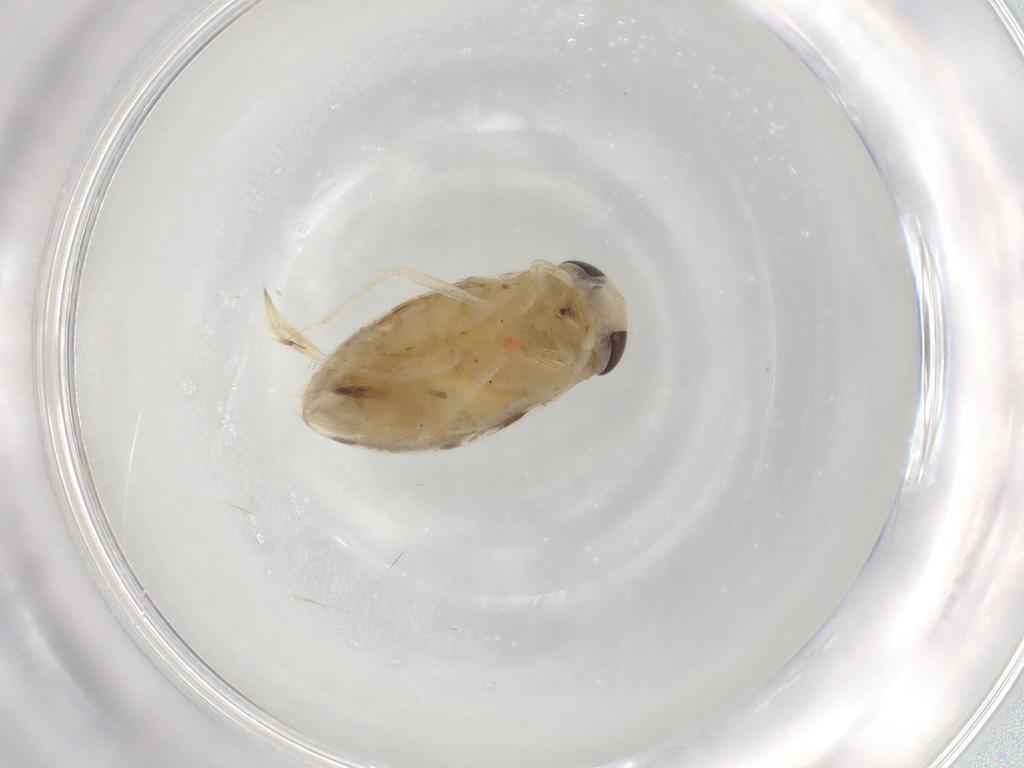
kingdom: Animalia
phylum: Arthropoda
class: Insecta
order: Hemiptera
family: Corixidae
